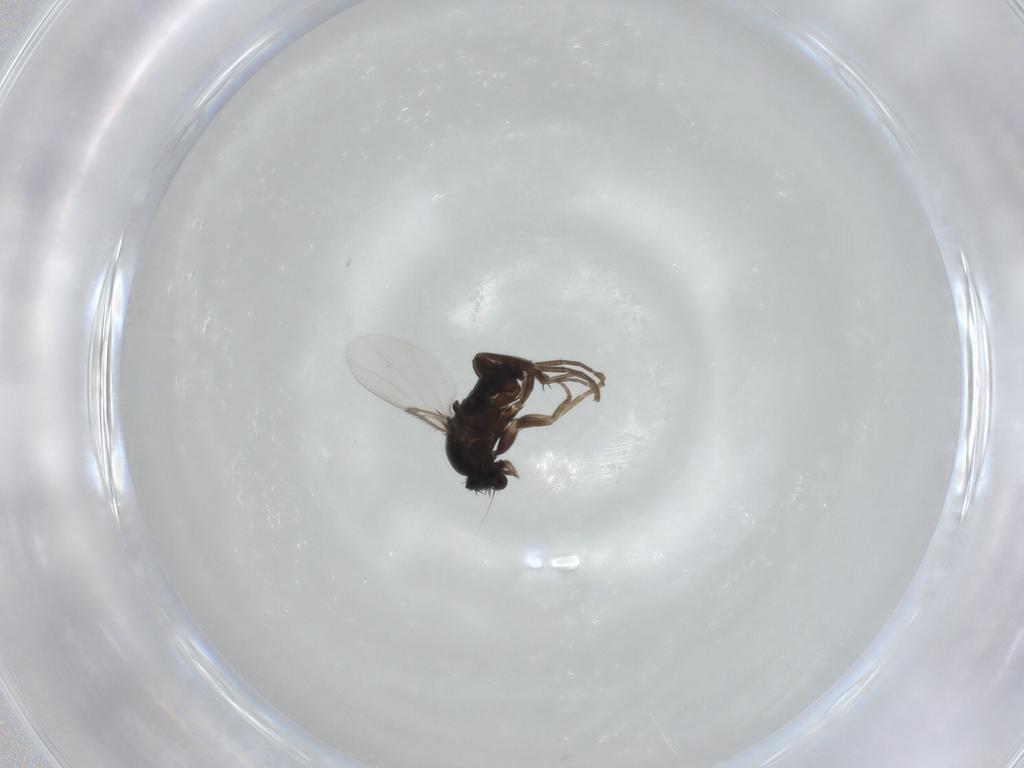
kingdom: Animalia
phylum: Arthropoda
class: Insecta
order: Diptera
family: Phoridae
